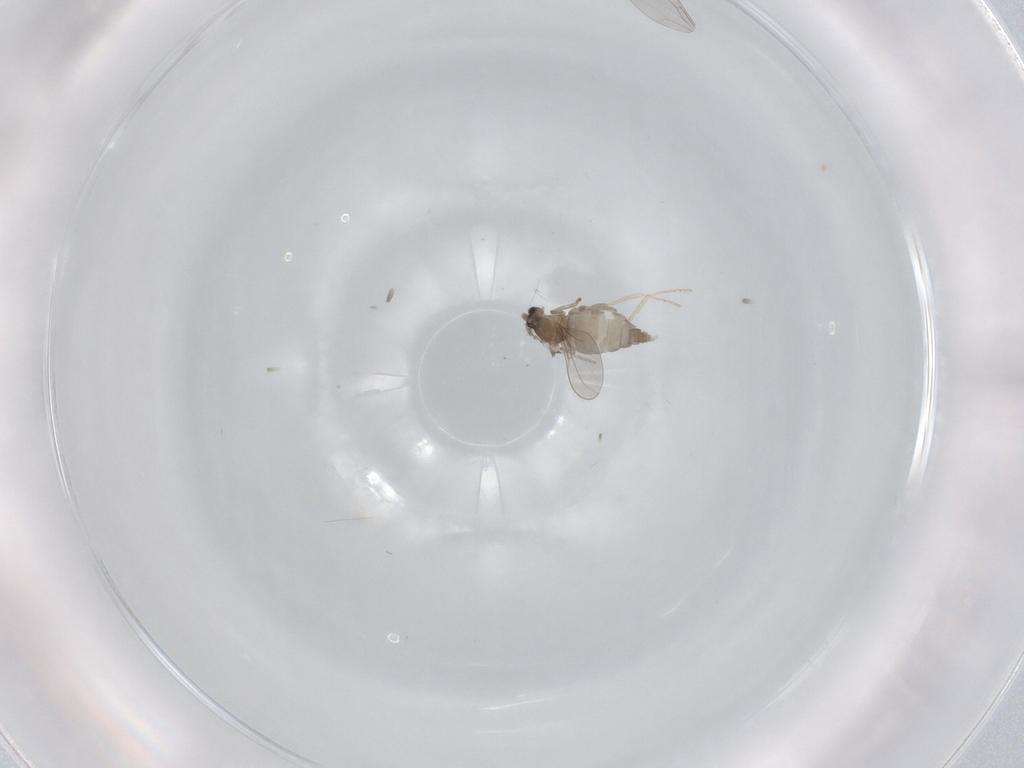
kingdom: Animalia
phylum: Arthropoda
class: Insecta
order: Diptera
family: Cecidomyiidae
